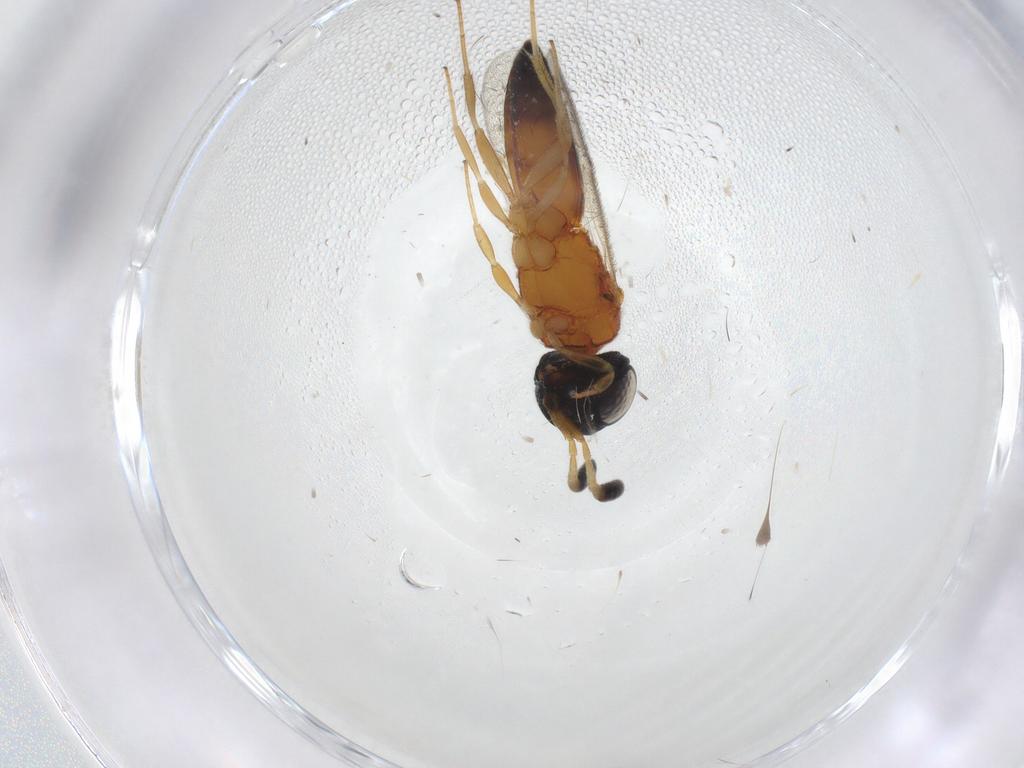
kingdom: Animalia
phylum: Arthropoda
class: Insecta
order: Hymenoptera
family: Scelionidae
